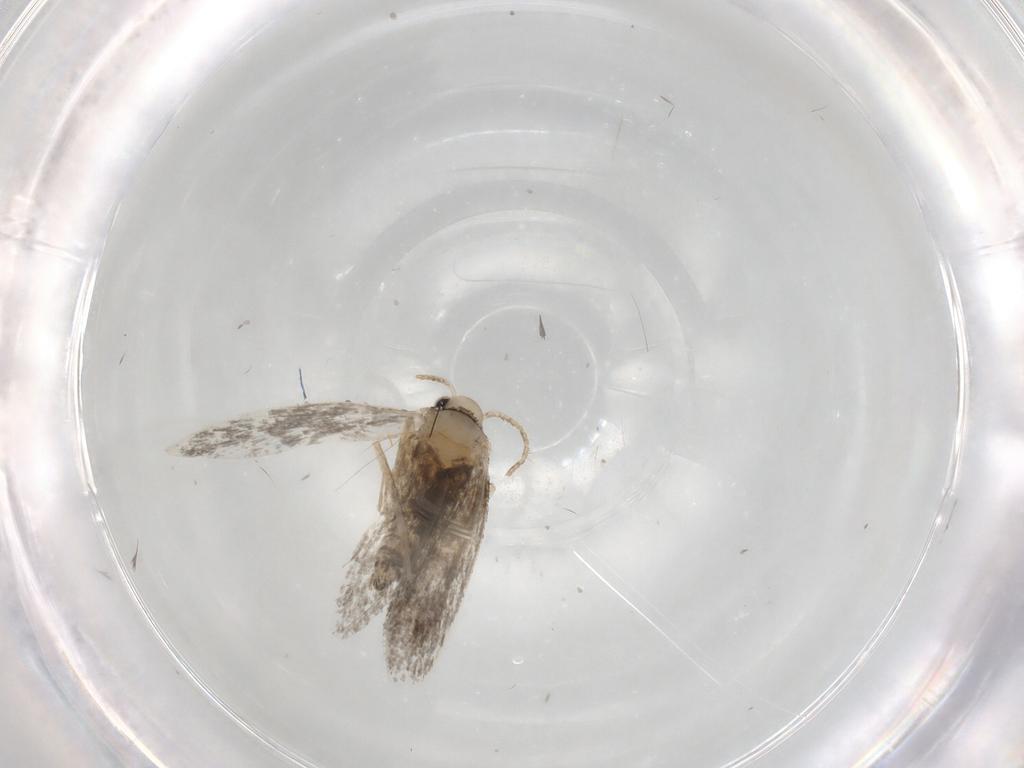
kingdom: Animalia
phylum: Arthropoda
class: Insecta
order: Lepidoptera
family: Psychidae
